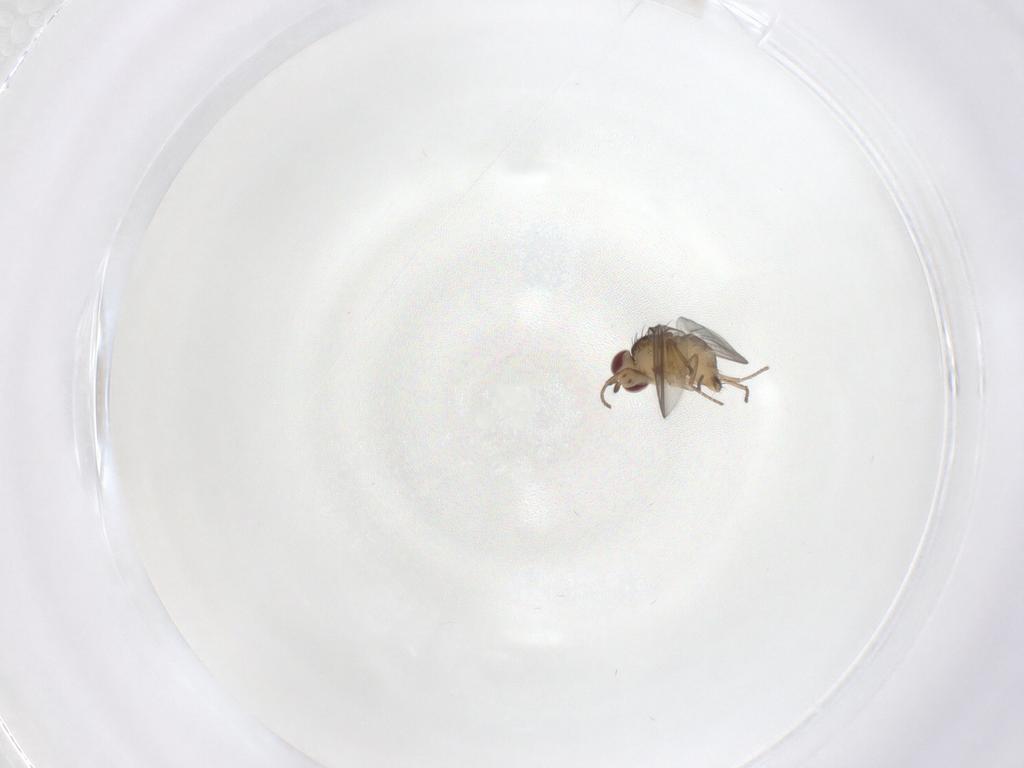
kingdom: Animalia
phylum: Arthropoda
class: Insecta
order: Diptera
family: Agromyzidae
